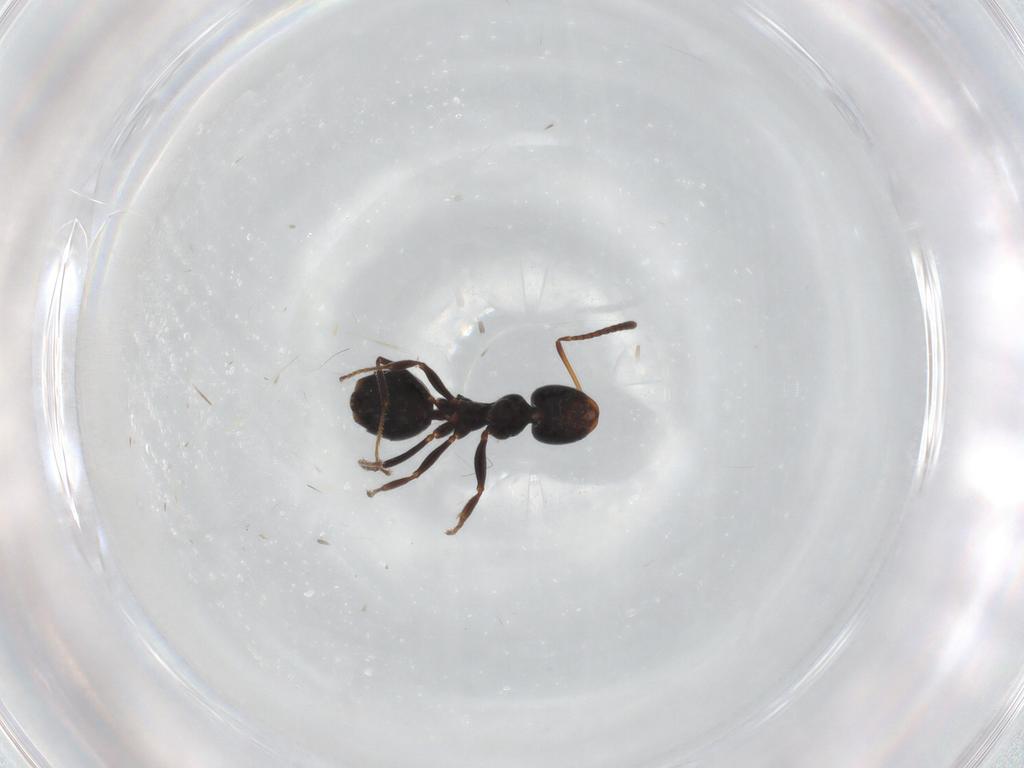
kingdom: Animalia
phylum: Arthropoda
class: Insecta
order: Hymenoptera
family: Formicidae
